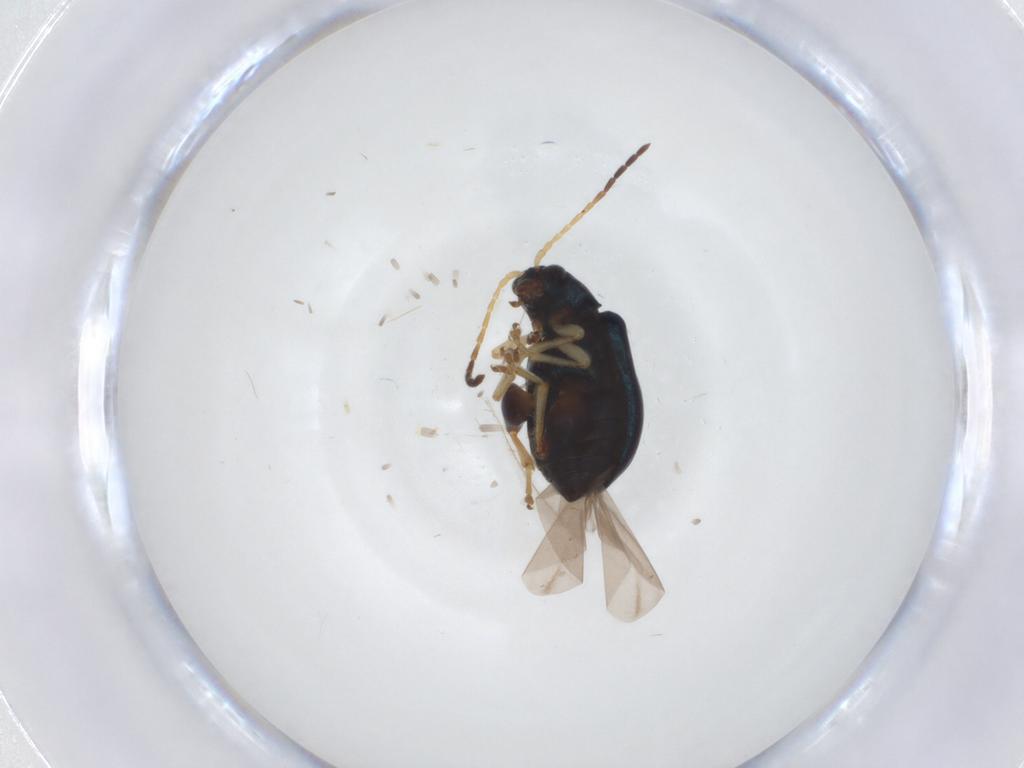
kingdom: Animalia
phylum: Arthropoda
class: Insecta
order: Coleoptera
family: Chrysomelidae
